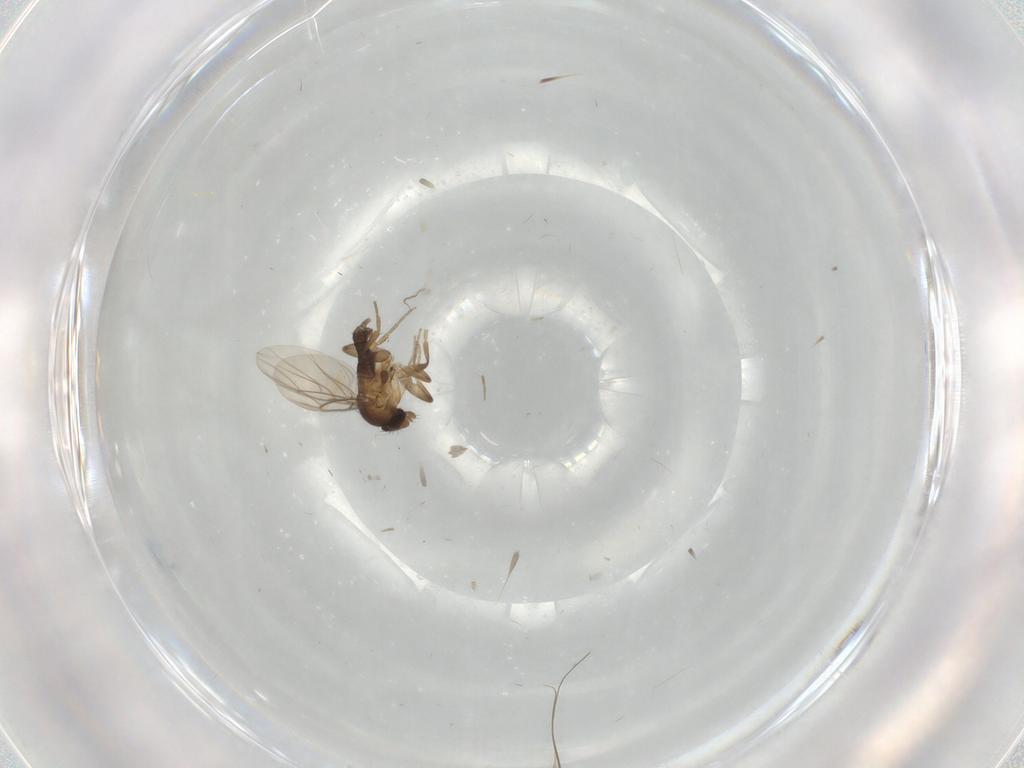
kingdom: Animalia
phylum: Arthropoda
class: Insecta
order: Diptera
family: Phoridae
